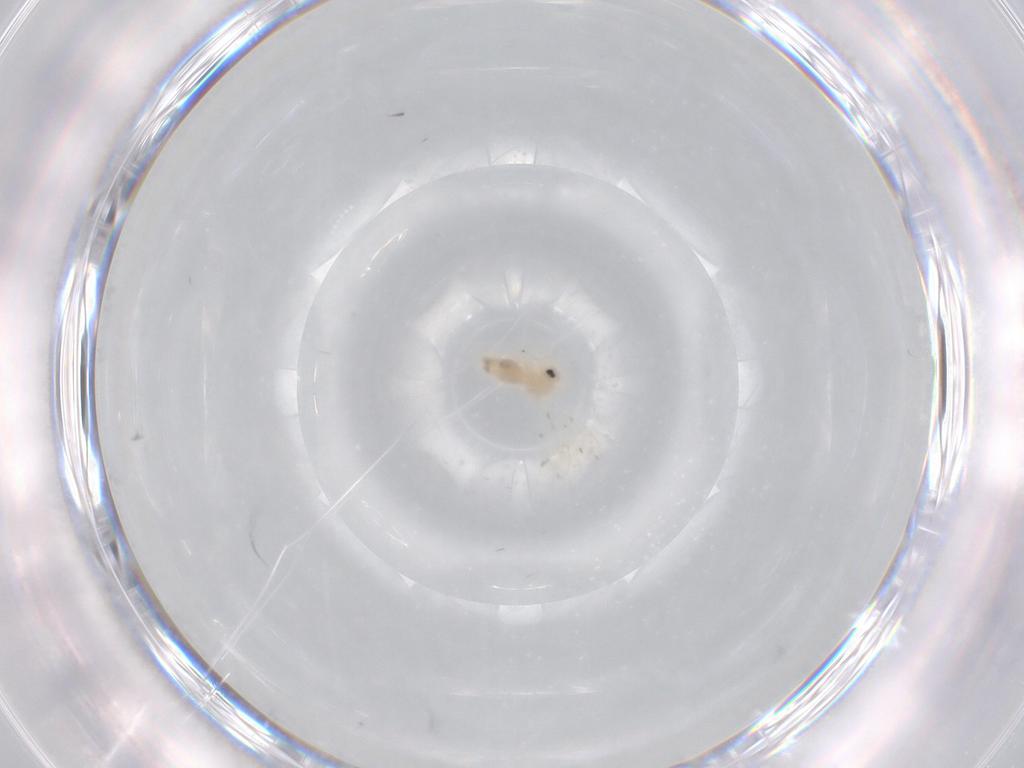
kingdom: Animalia
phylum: Arthropoda
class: Insecta
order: Hemiptera
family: Aleyrodidae
